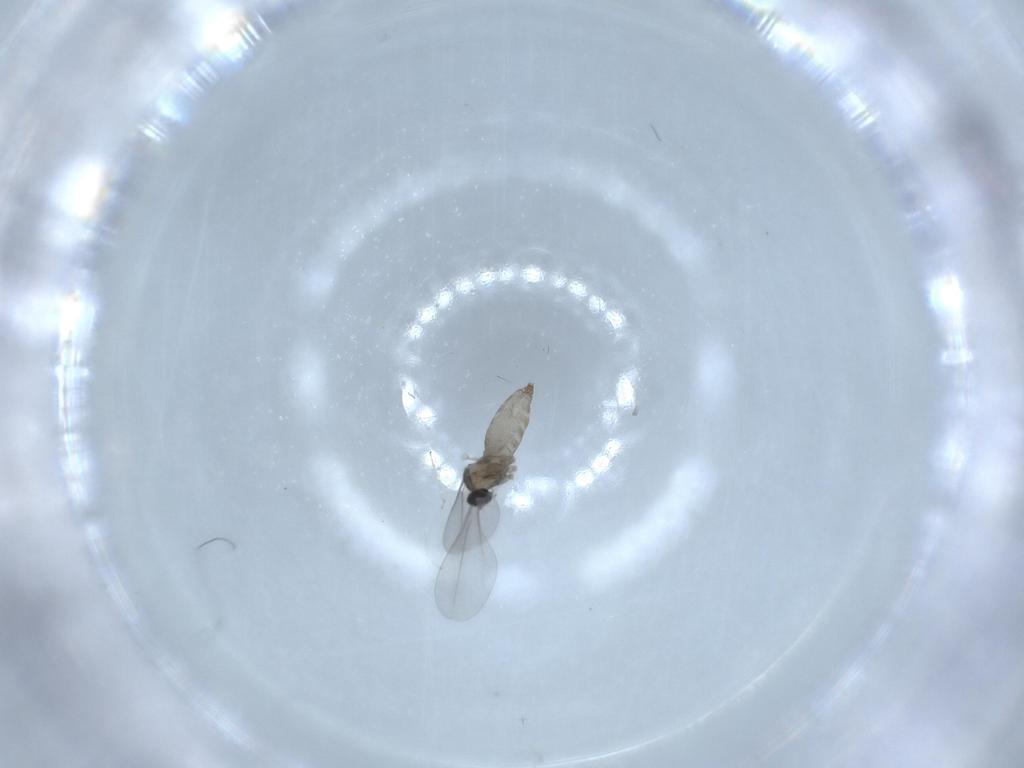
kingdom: Animalia
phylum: Arthropoda
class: Insecta
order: Diptera
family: Cecidomyiidae
